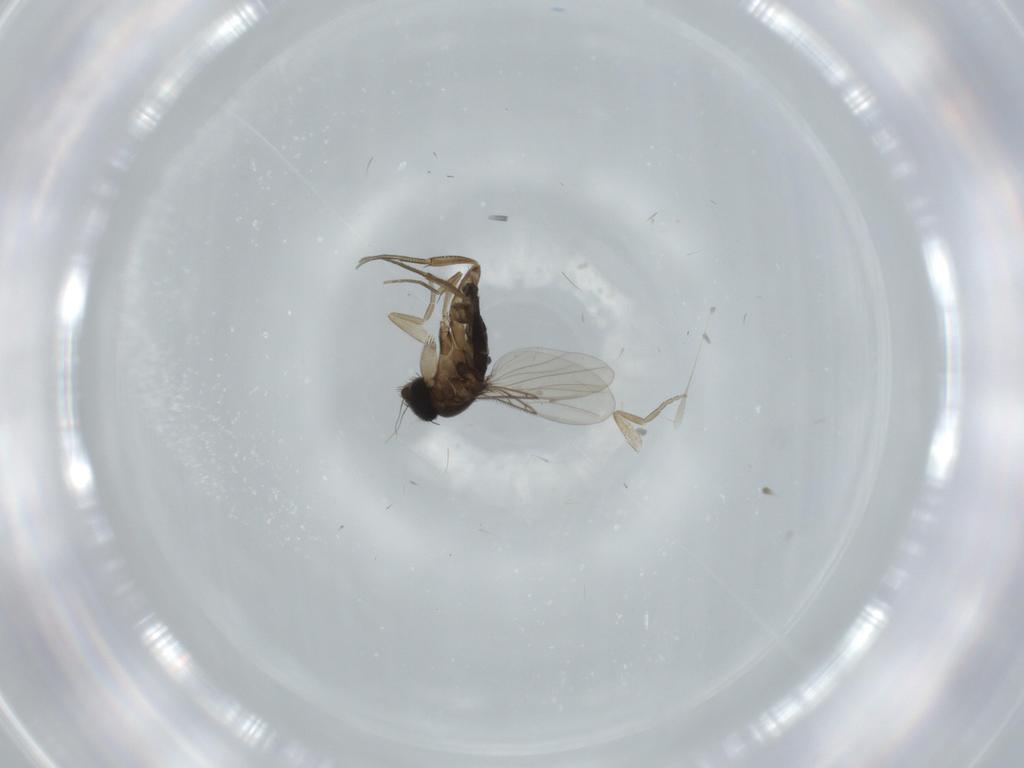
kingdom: Animalia
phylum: Arthropoda
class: Insecta
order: Diptera
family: Phoridae
